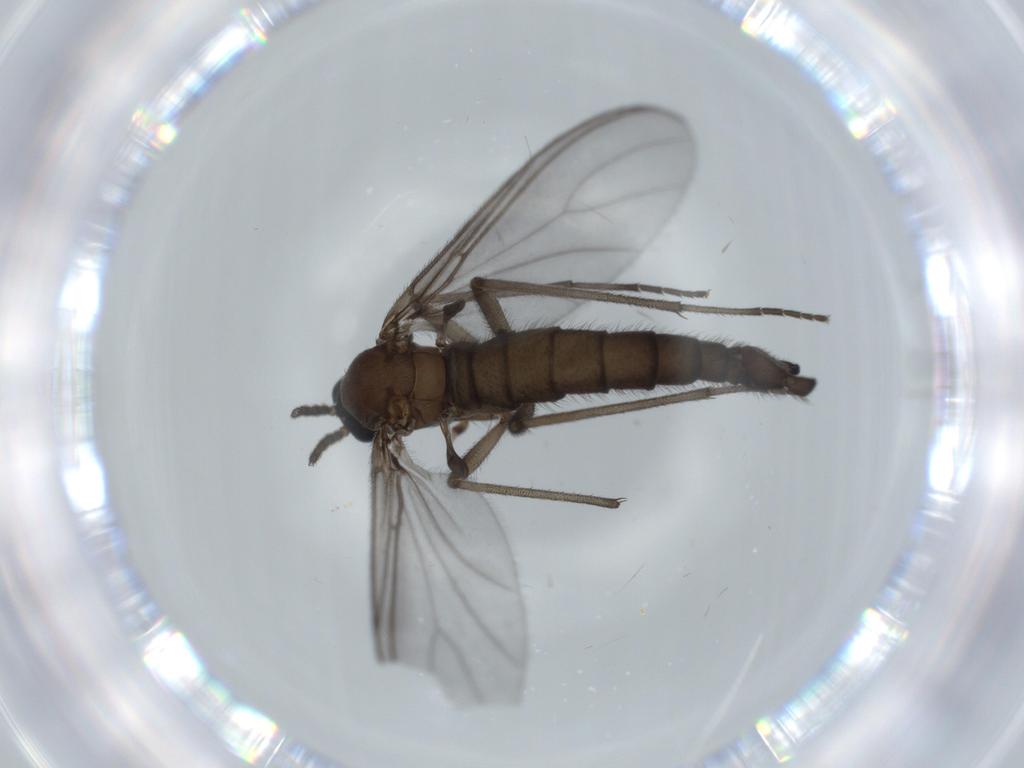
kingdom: Animalia
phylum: Arthropoda
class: Insecta
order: Diptera
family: Sciaridae
